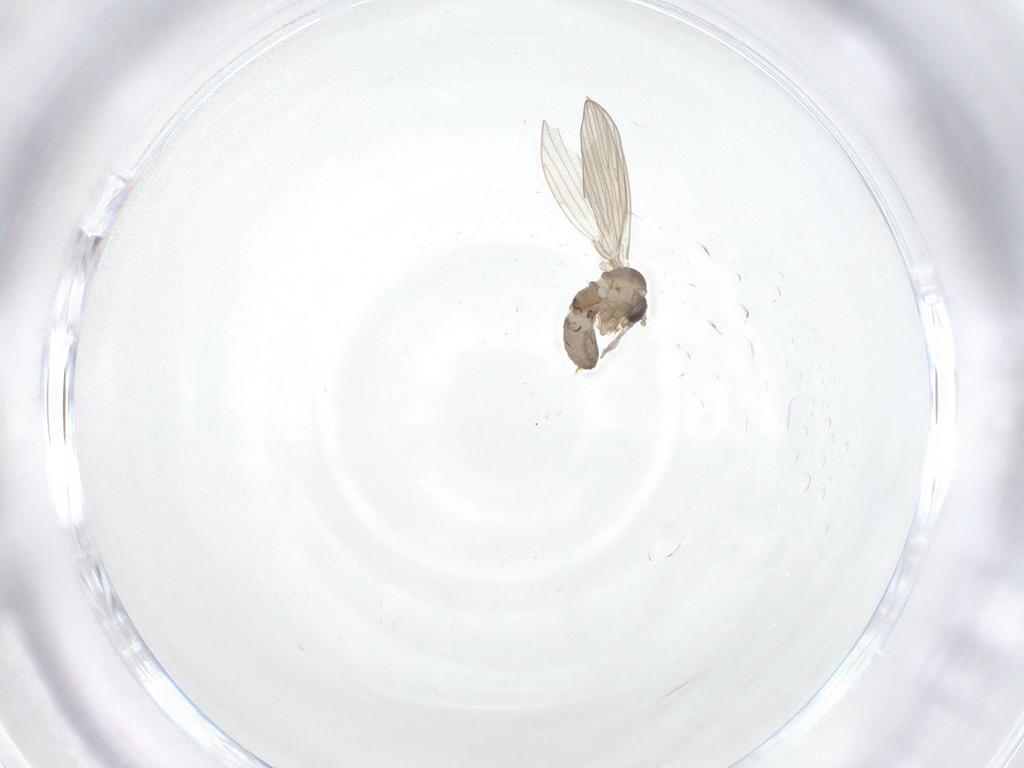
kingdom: Animalia
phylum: Arthropoda
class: Insecta
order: Diptera
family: Psychodidae
